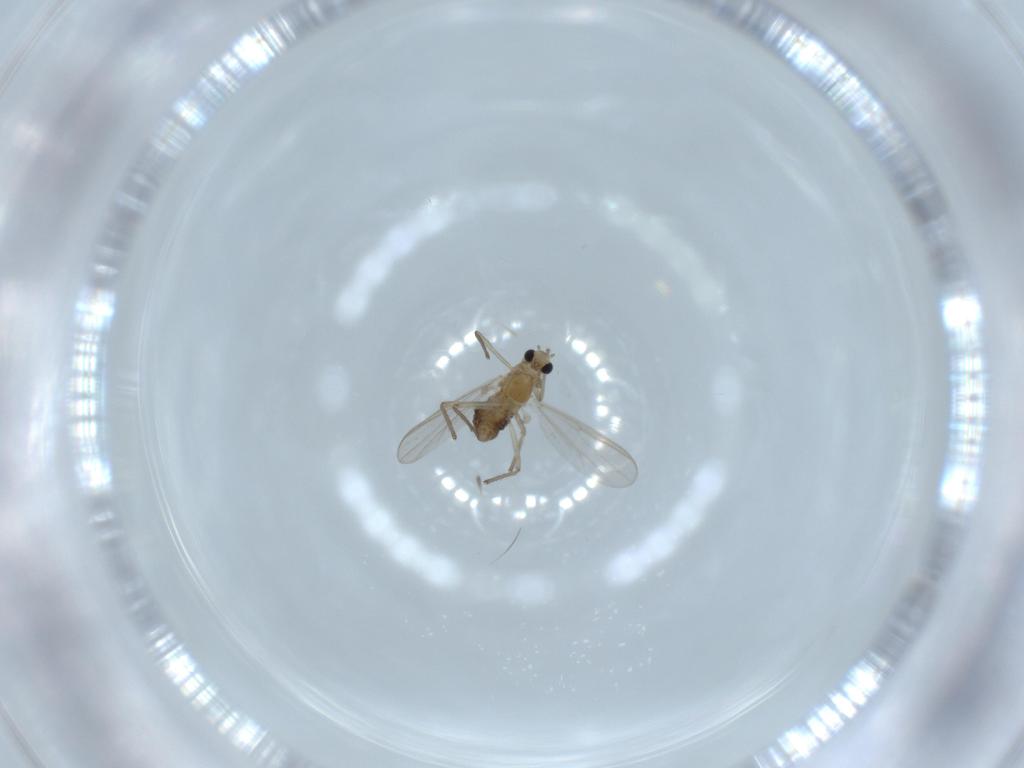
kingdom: Animalia
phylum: Arthropoda
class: Insecta
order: Diptera
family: Chironomidae
